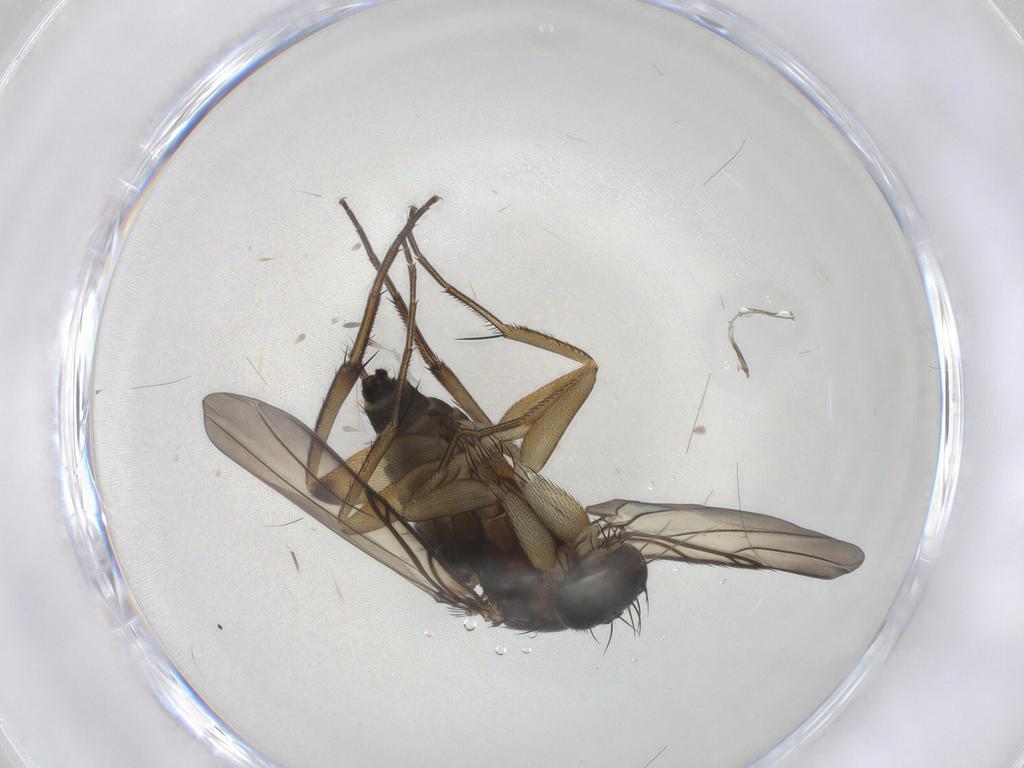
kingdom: Animalia
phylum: Arthropoda
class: Insecta
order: Diptera
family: Phoridae
